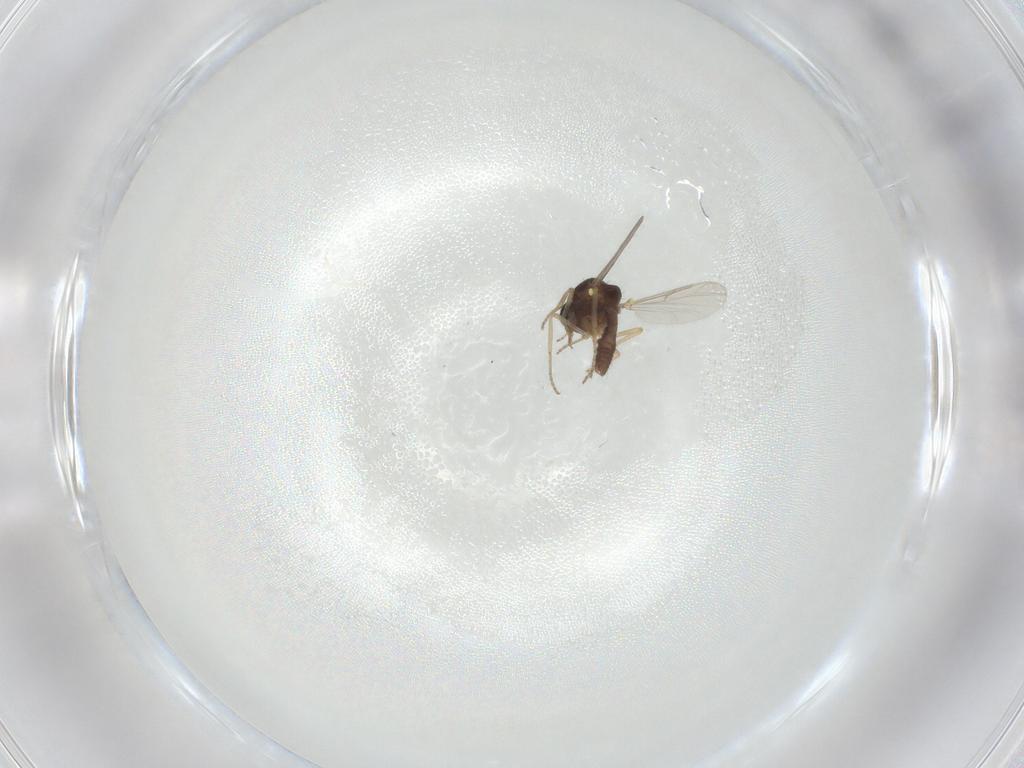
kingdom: Animalia
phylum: Arthropoda
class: Insecta
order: Diptera
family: Ceratopogonidae
